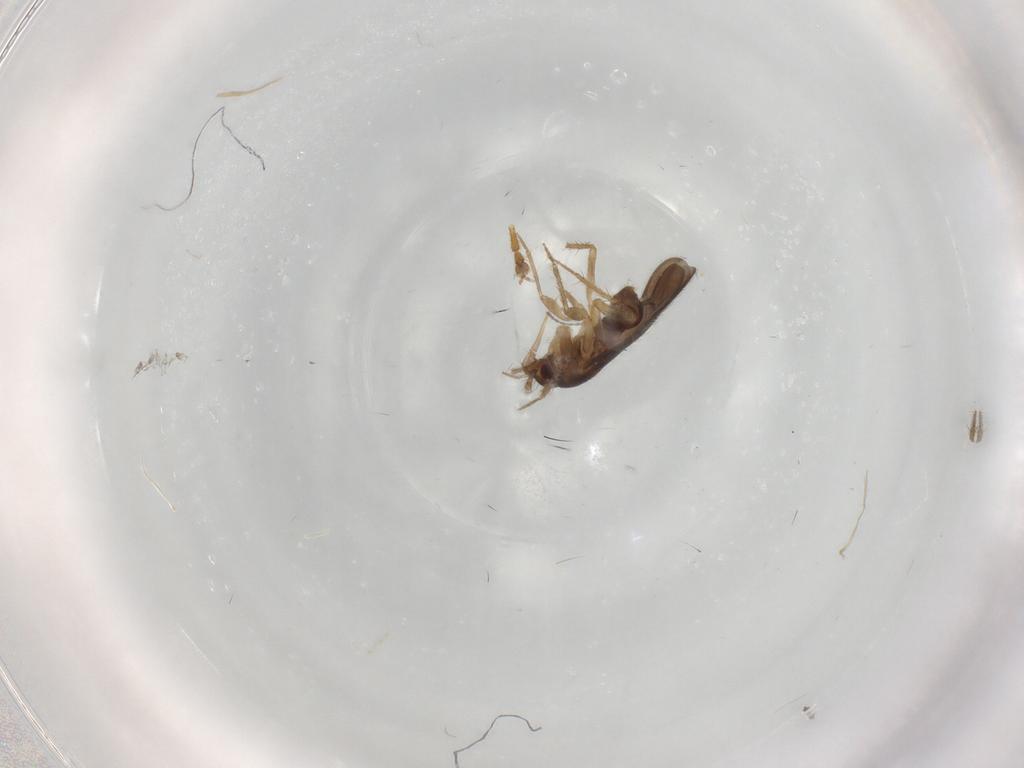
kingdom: Animalia
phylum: Arthropoda
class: Insecta
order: Hemiptera
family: Ceratocombidae
